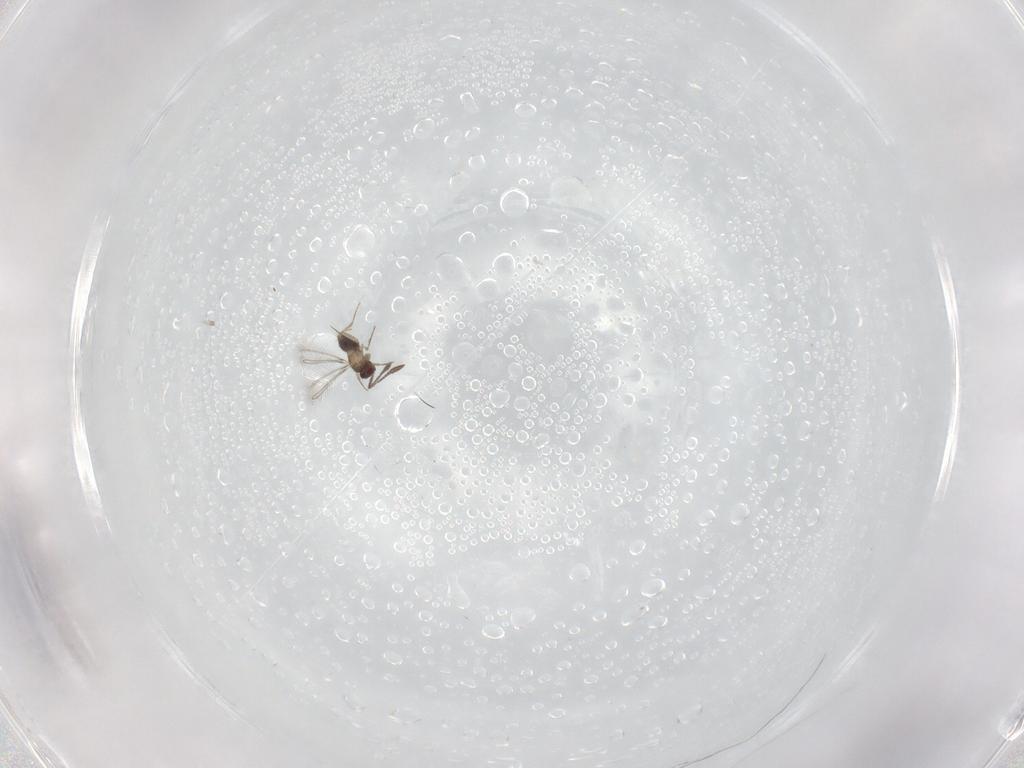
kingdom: Animalia
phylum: Arthropoda
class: Insecta
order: Hymenoptera
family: Mymaridae
